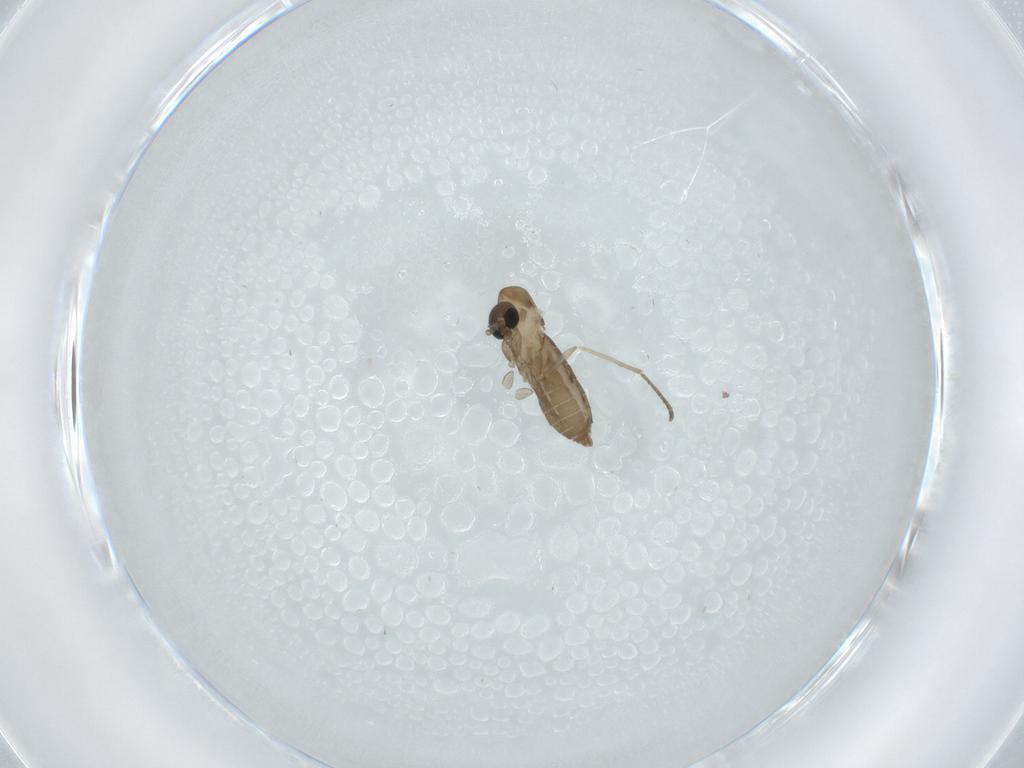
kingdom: Animalia
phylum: Arthropoda
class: Insecta
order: Diptera
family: Psychodidae
